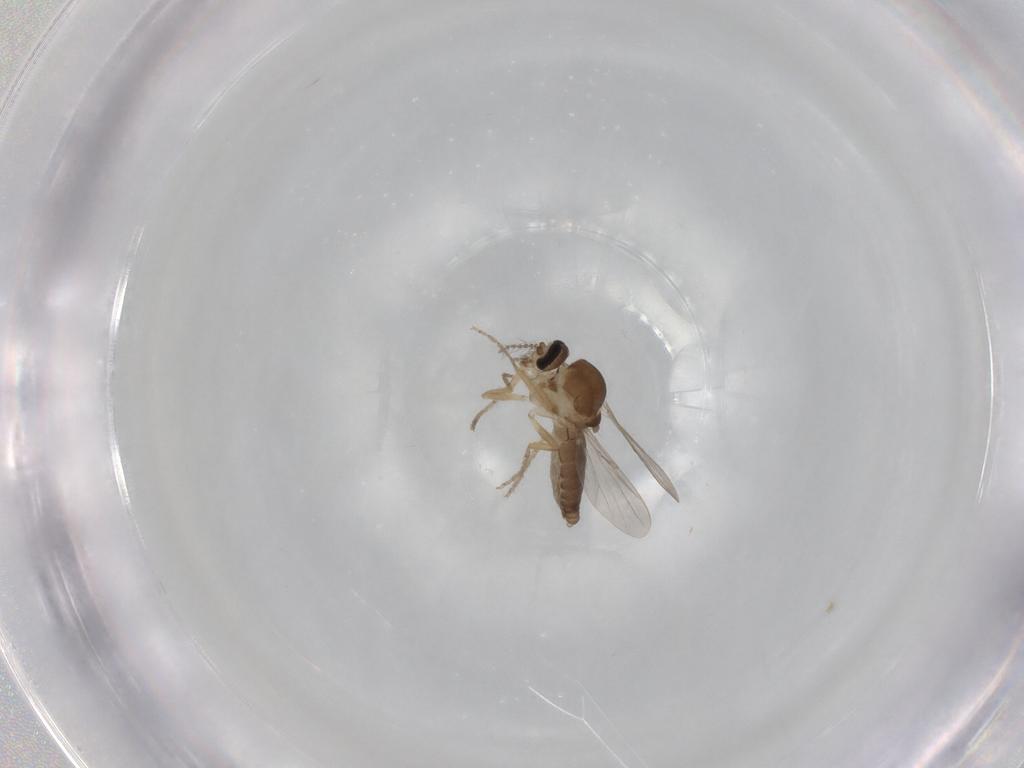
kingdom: Animalia
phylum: Arthropoda
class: Insecta
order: Diptera
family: Ceratopogonidae
